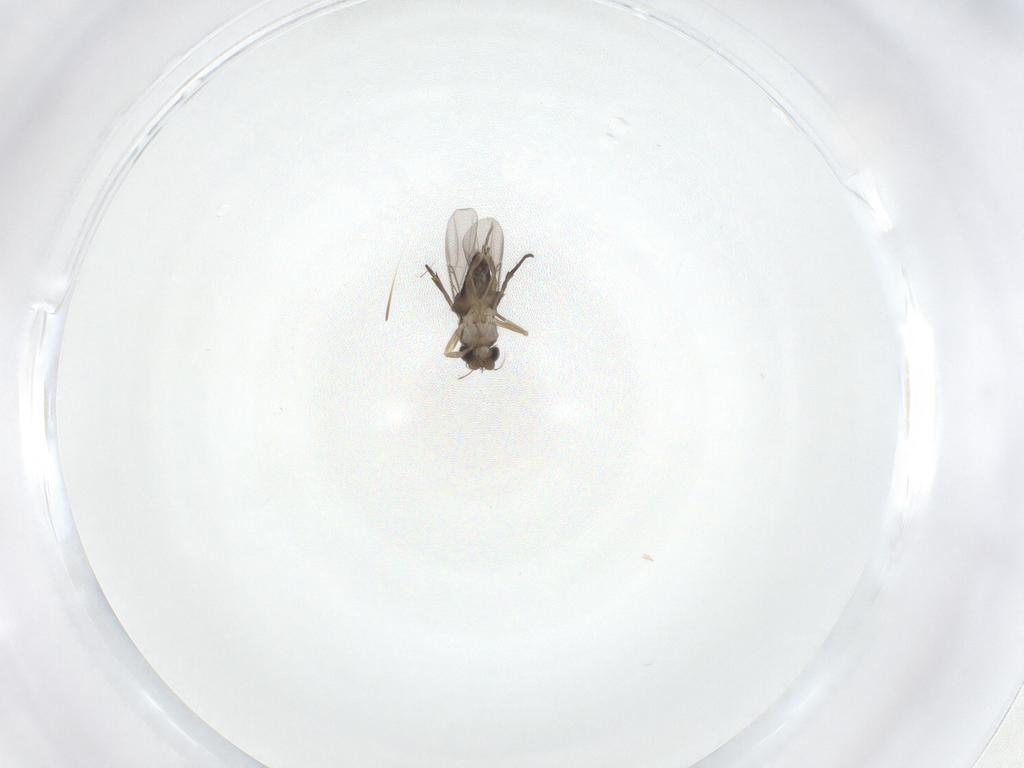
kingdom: Animalia
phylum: Arthropoda
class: Insecta
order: Diptera
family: Phoridae
